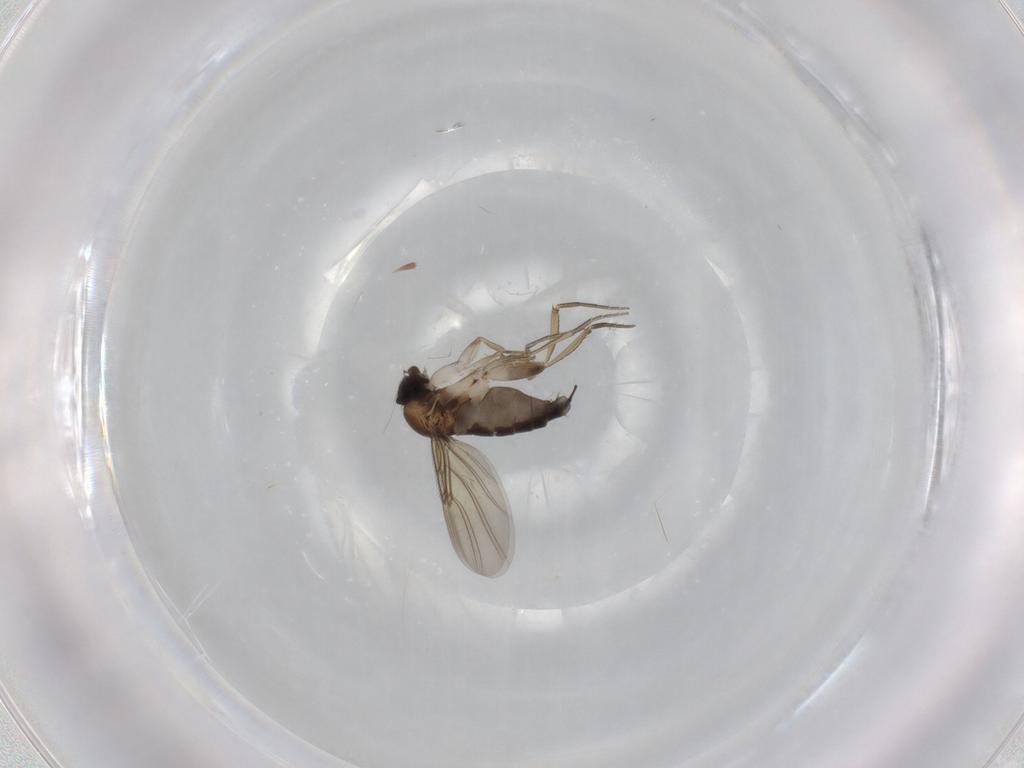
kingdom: Animalia
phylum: Arthropoda
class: Insecta
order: Diptera
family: Phoridae
